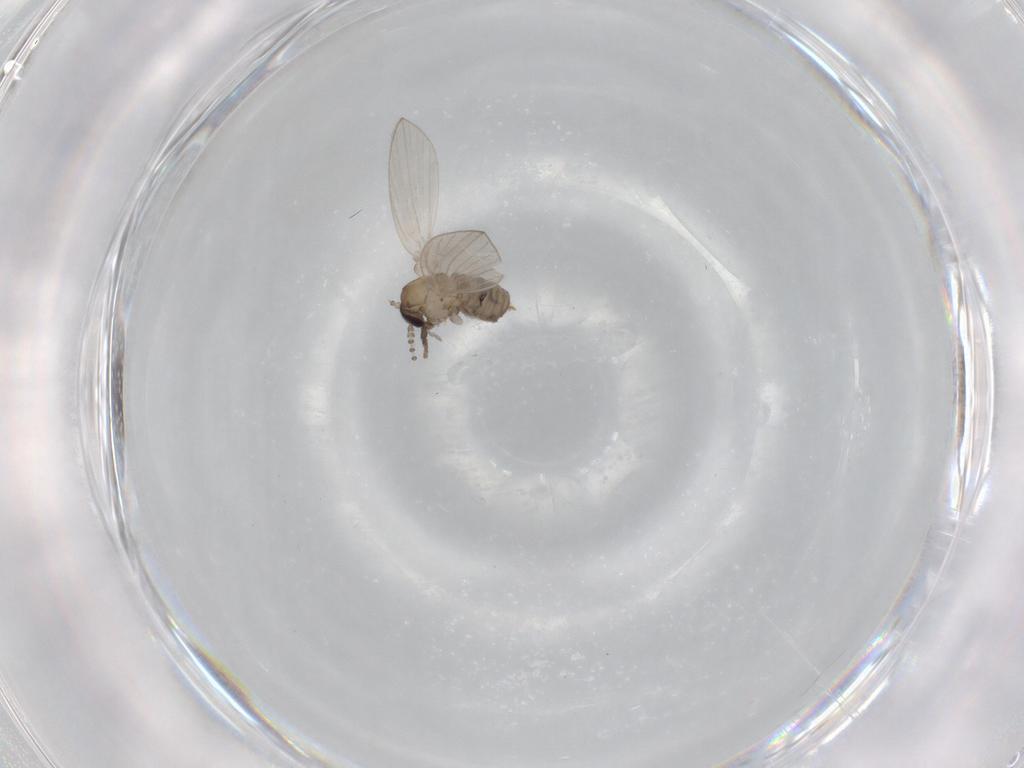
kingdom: Animalia
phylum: Arthropoda
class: Insecta
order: Diptera
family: Psychodidae
